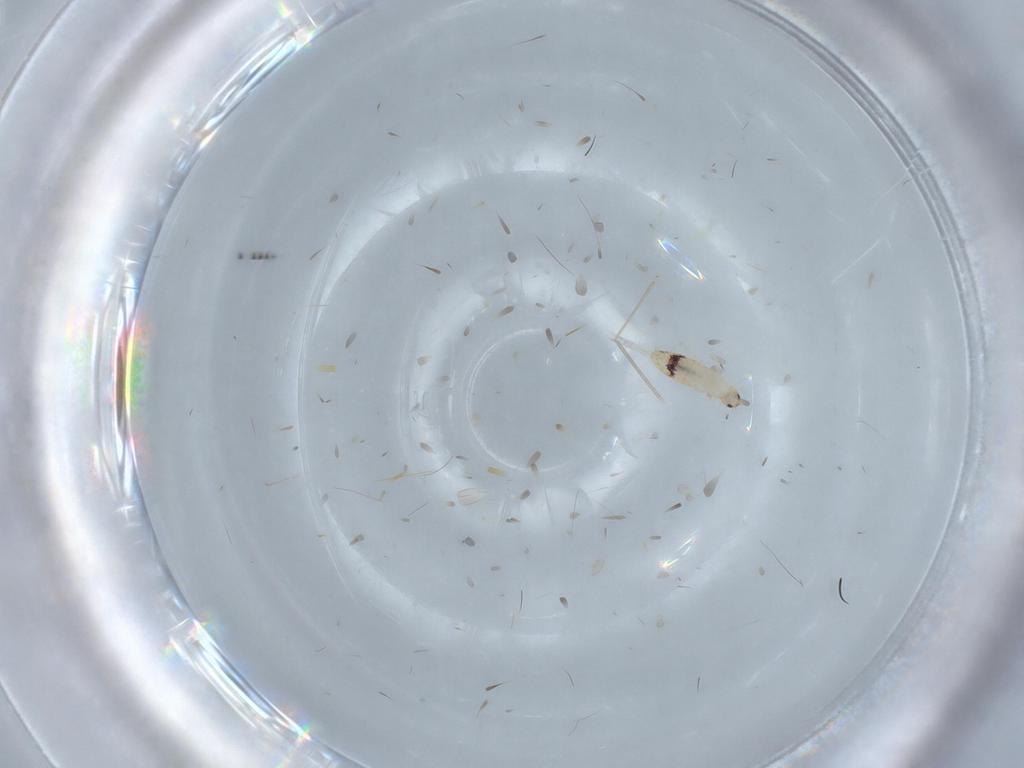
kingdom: Animalia
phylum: Arthropoda
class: Collembola
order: Entomobryomorpha
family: Entomobryidae
